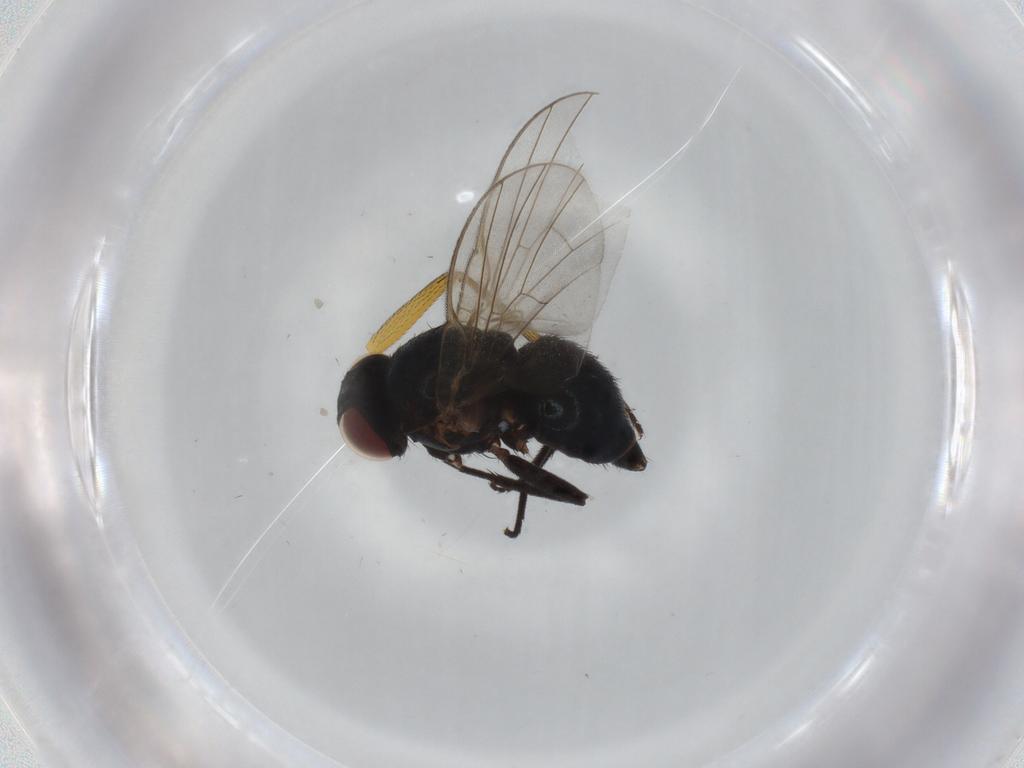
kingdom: Animalia
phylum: Arthropoda
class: Insecta
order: Diptera
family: Agromyzidae
